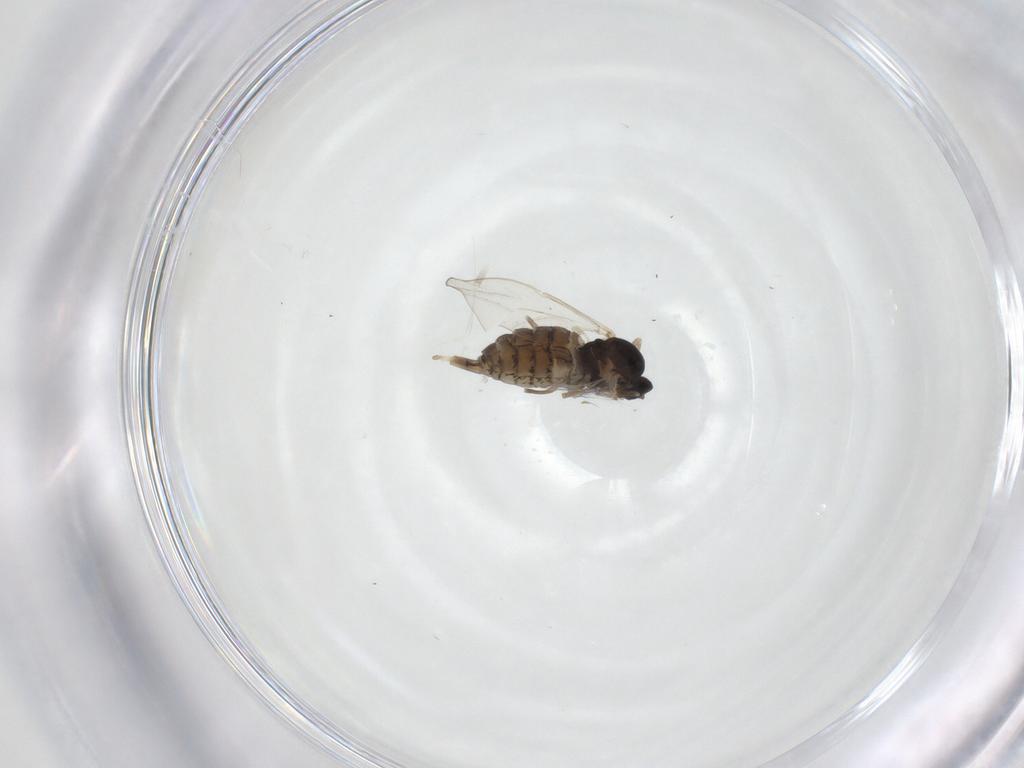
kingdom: Animalia
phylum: Arthropoda
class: Insecta
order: Diptera
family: Cecidomyiidae
